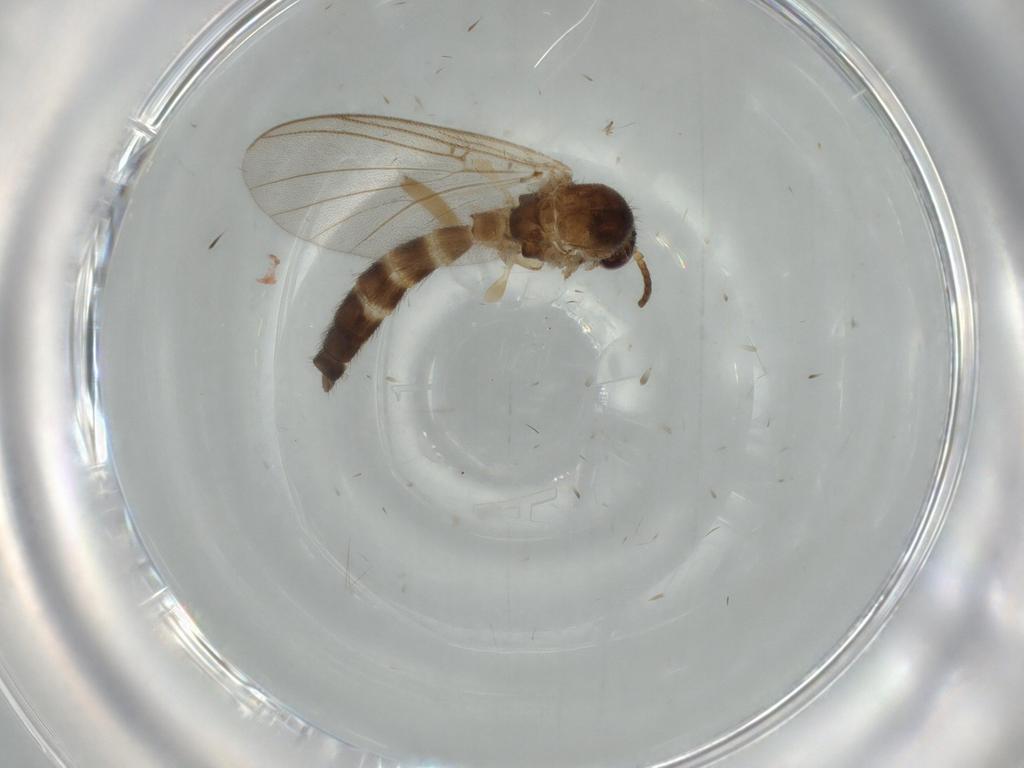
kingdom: Animalia
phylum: Arthropoda
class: Insecta
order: Diptera
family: Mycetophilidae
